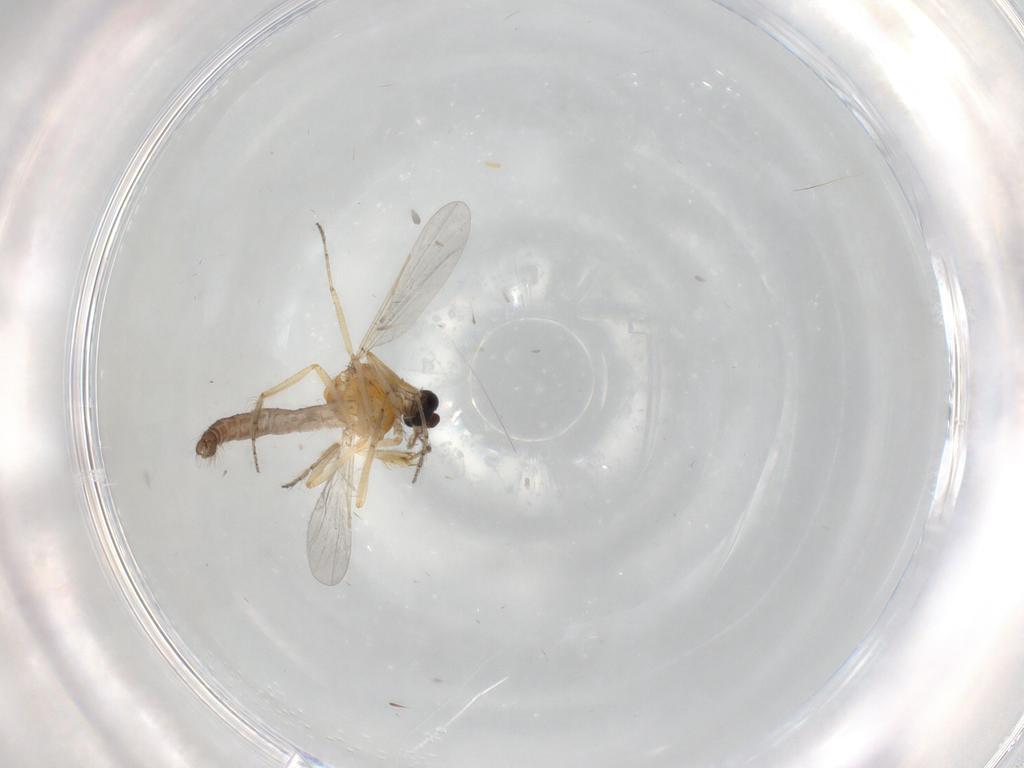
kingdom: Animalia
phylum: Arthropoda
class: Insecta
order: Diptera
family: Ceratopogonidae
